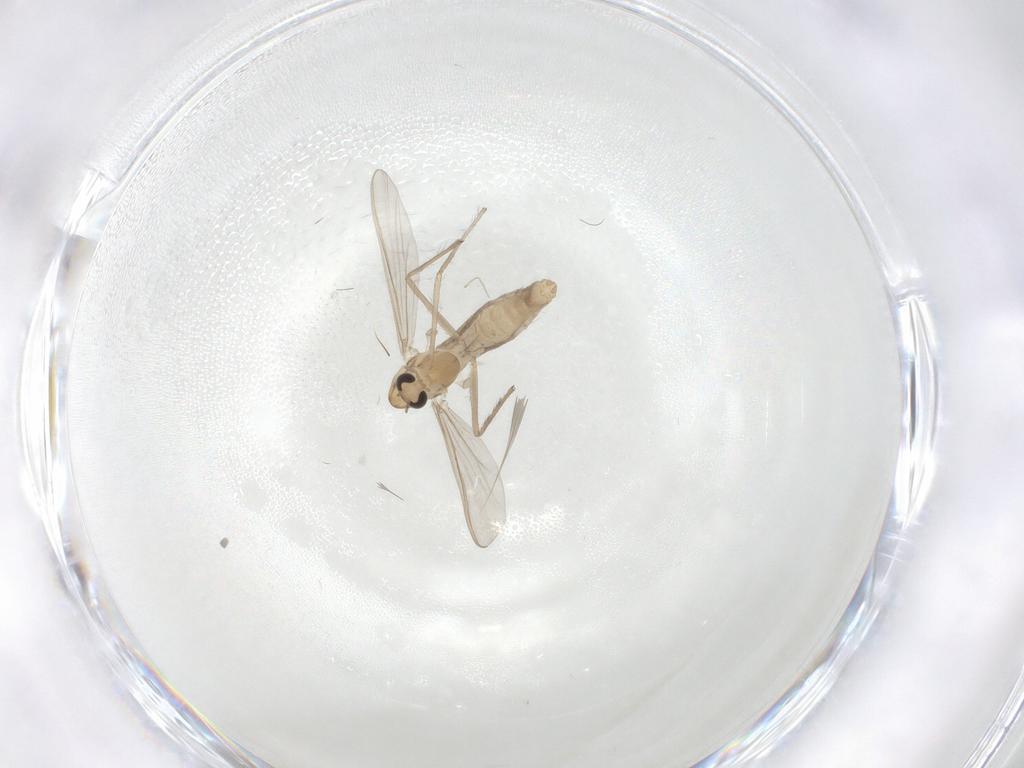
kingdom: Animalia
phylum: Arthropoda
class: Insecta
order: Diptera
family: Chironomidae
